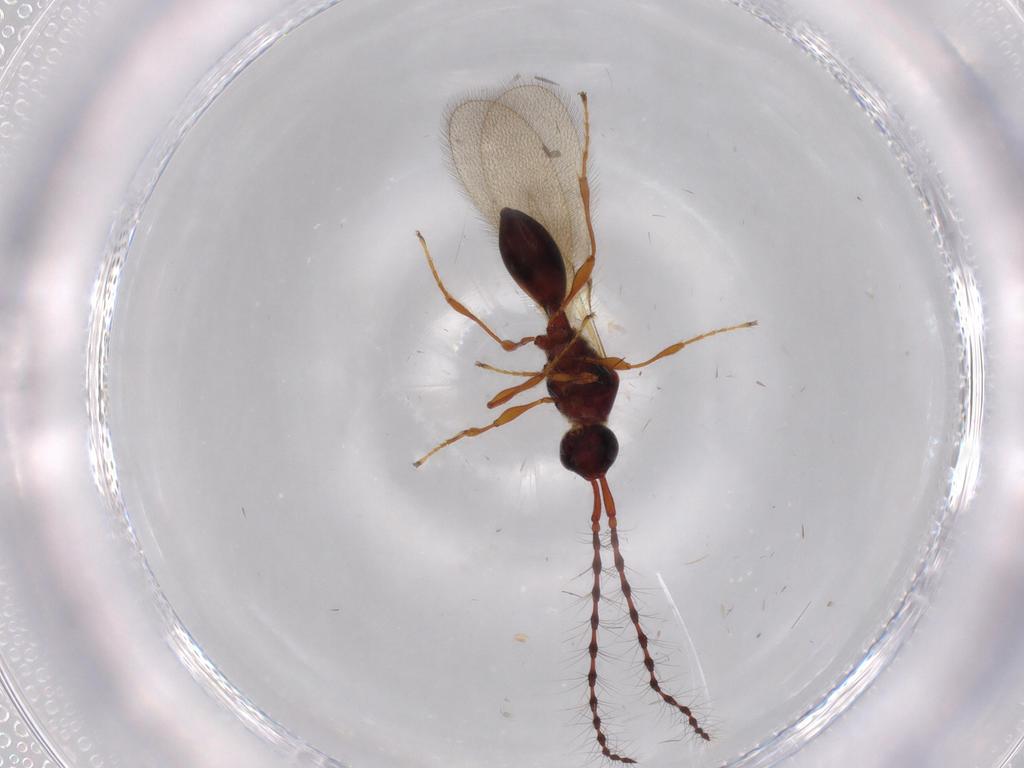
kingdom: Animalia
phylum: Arthropoda
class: Insecta
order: Hymenoptera
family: Diapriidae
